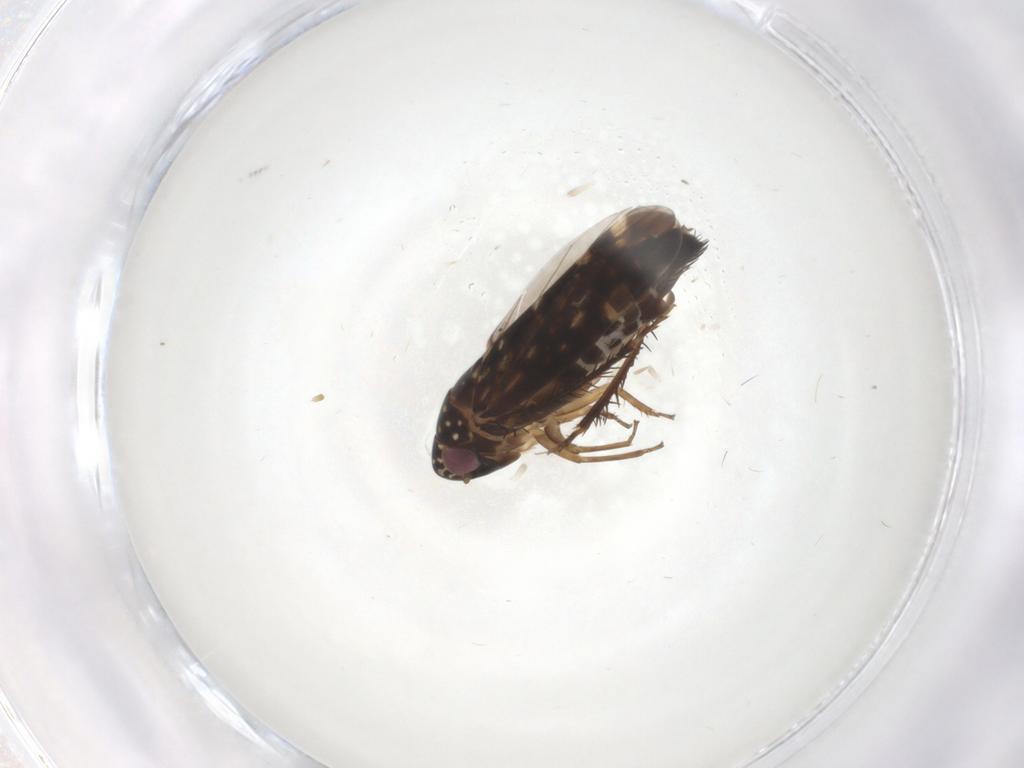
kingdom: Animalia
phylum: Arthropoda
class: Insecta
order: Hemiptera
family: Cicadellidae
